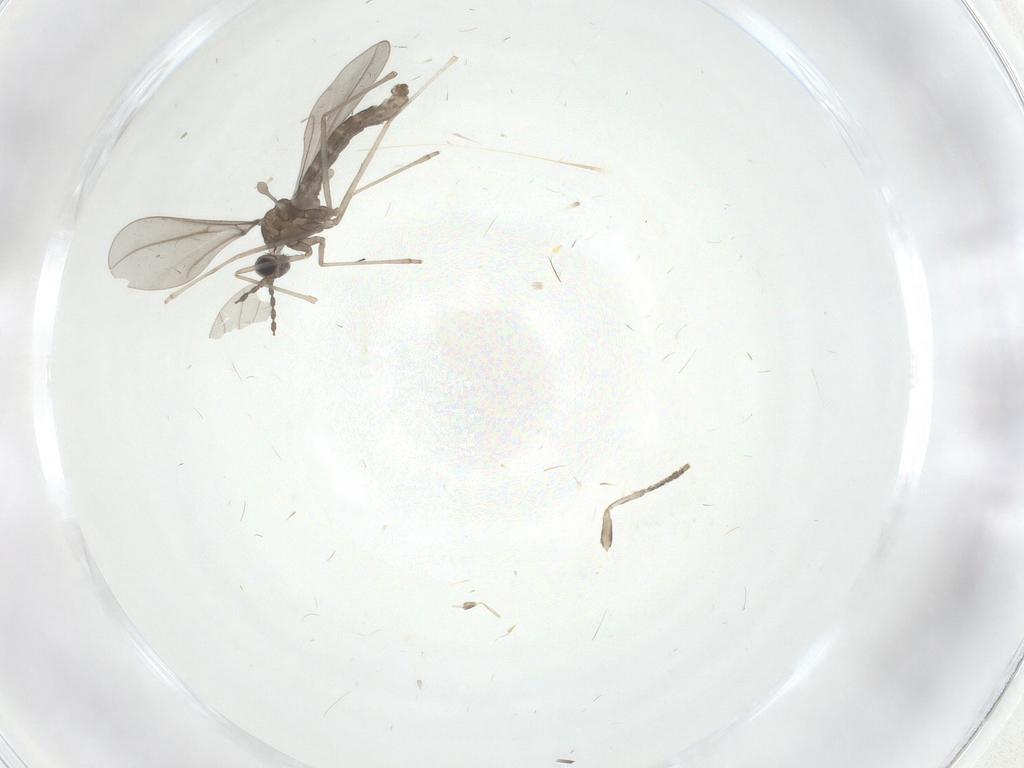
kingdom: Animalia
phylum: Arthropoda
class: Insecta
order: Diptera
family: Cecidomyiidae
